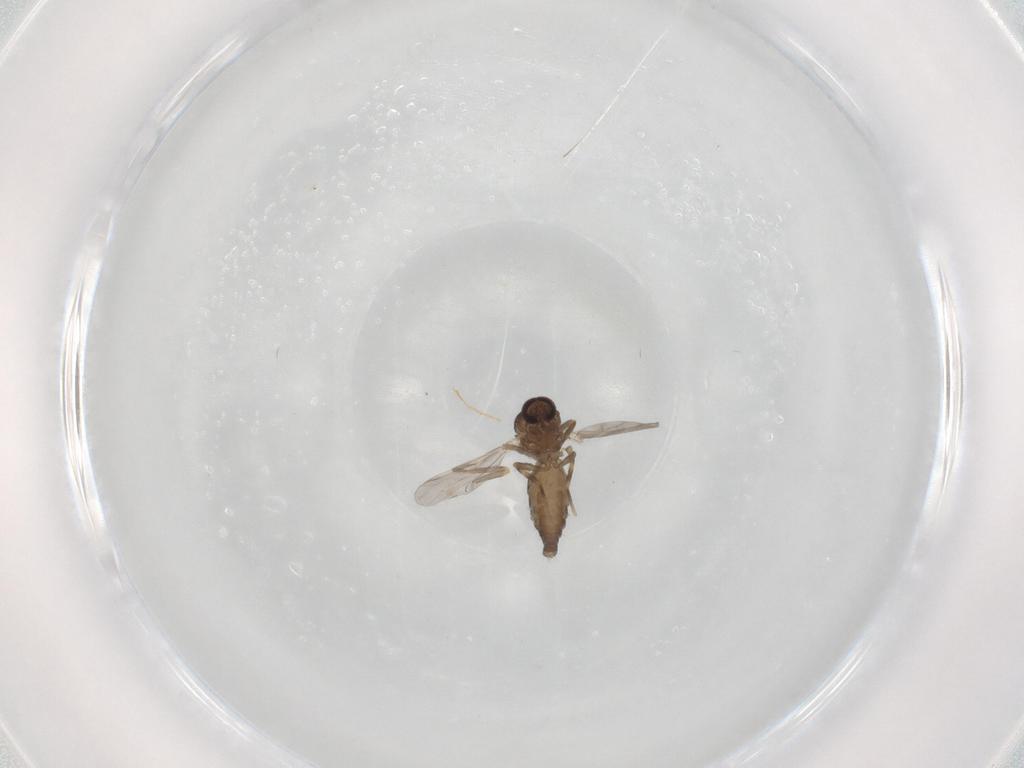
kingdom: Animalia
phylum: Arthropoda
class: Insecta
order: Diptera
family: Ceratopogonidae
